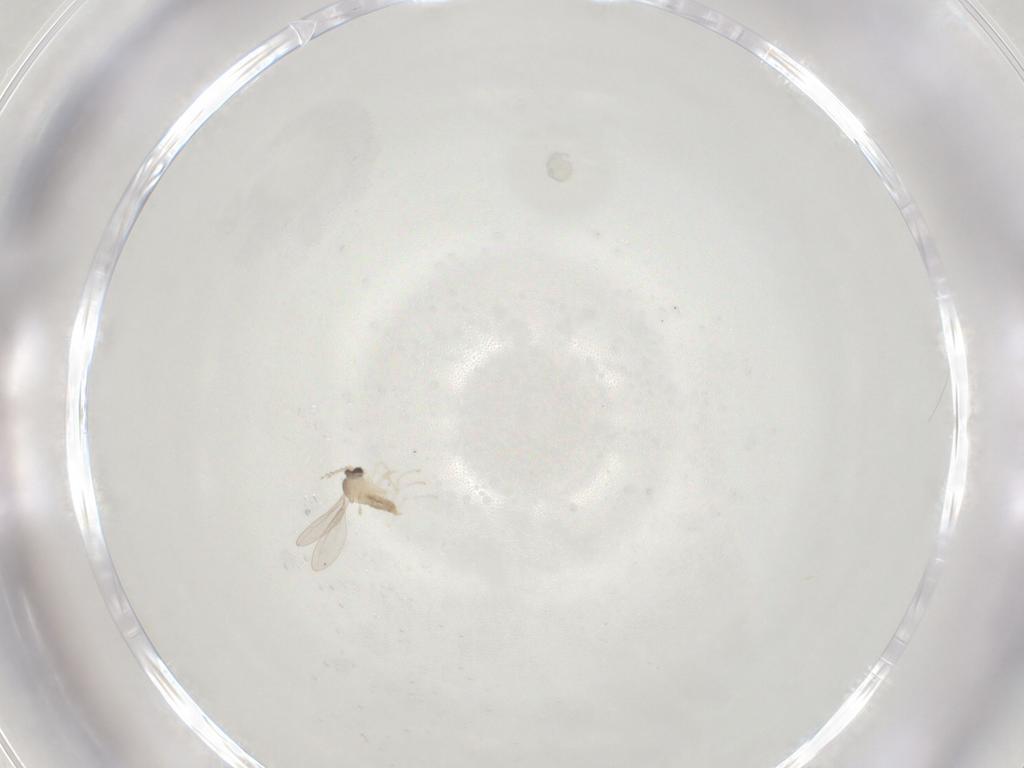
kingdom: Animalia
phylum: Arthropoda
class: Insecta
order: Diptera
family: Cecidomyiidae
